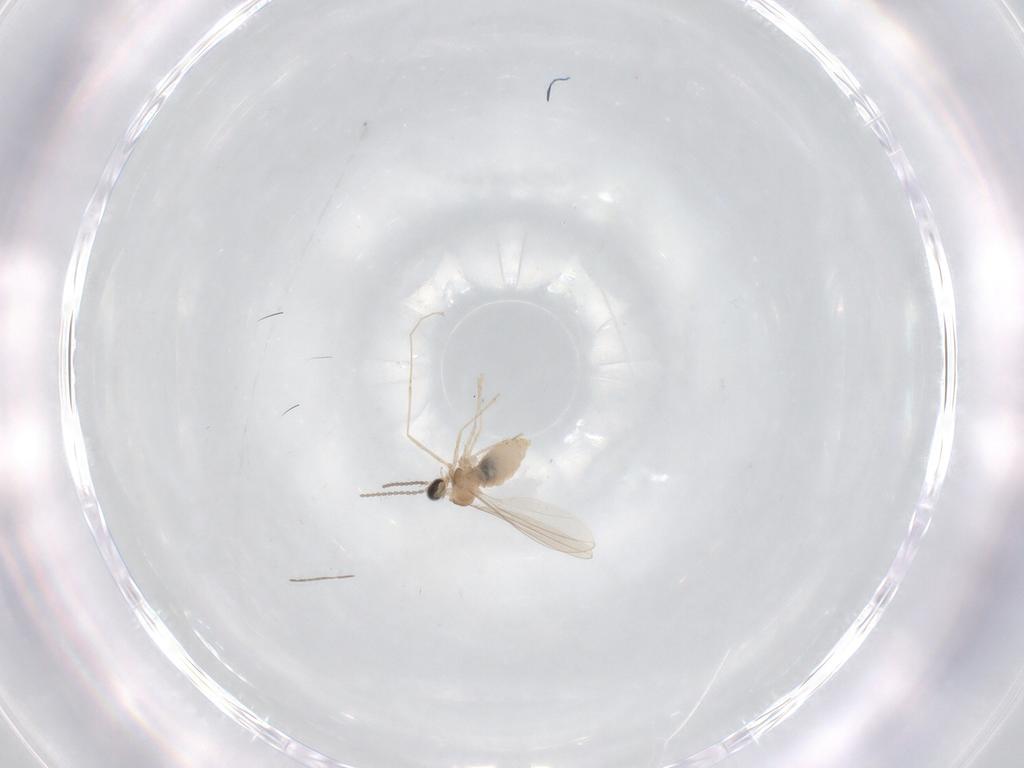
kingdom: Animalia
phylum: Arthropoda
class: Insecta
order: Diptera
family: Cecidomyiidae
